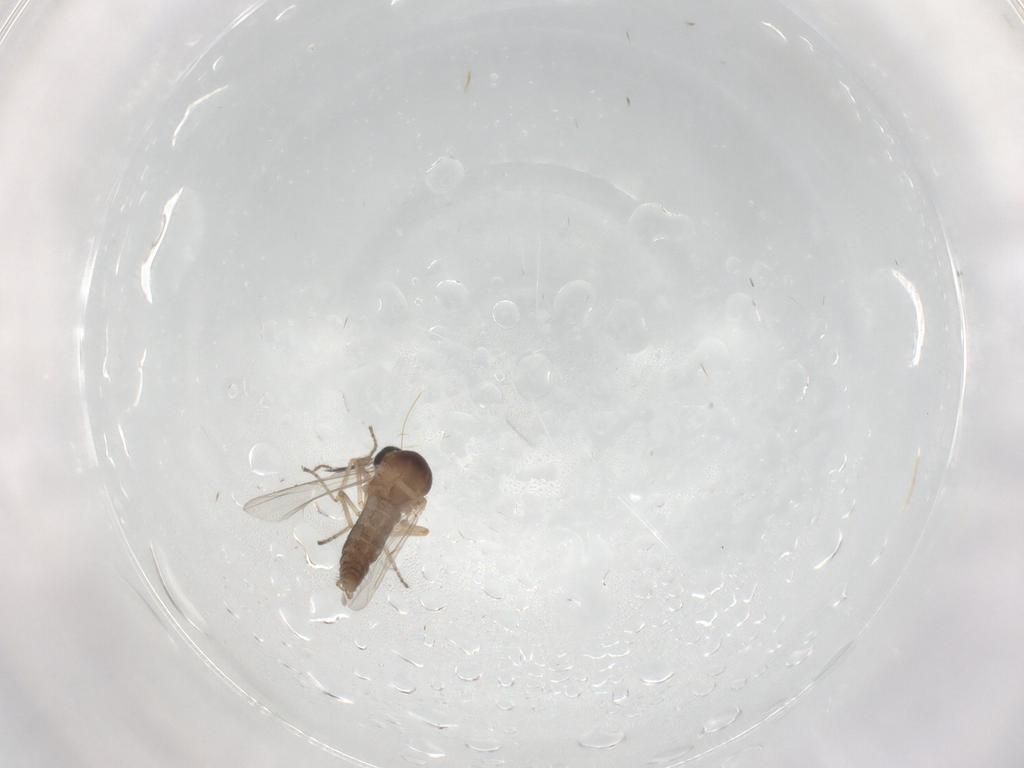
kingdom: Animalia
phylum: Arthropoda
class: Insecta
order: Diptera
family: Ceratopogonidae
